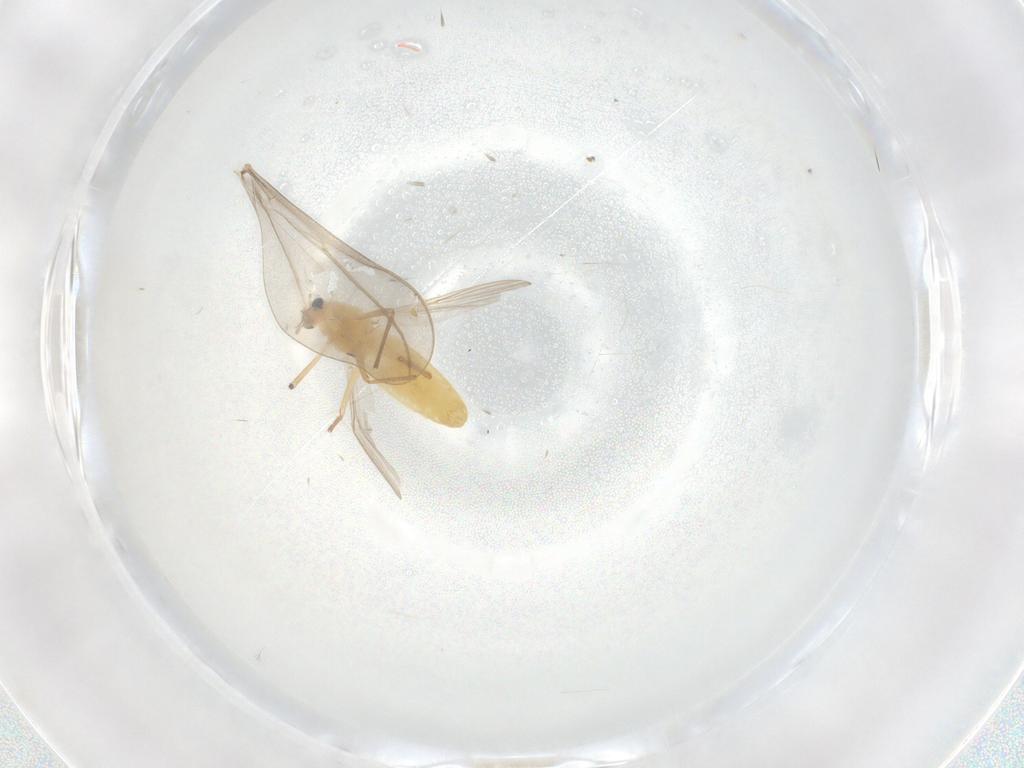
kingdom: Animalia
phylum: Arthropoda
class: Insecta
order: Diptera
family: Chironomidae
